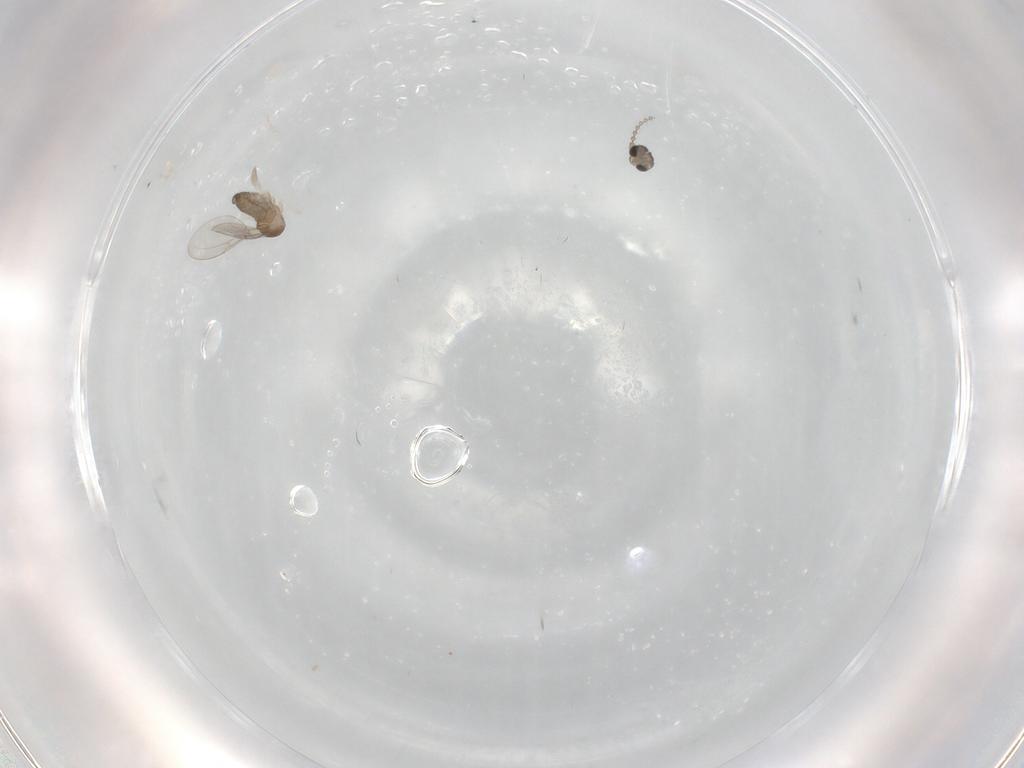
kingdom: Animalia
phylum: Arthropoda
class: Insecta
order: Diptera
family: Cecidomyiidae
